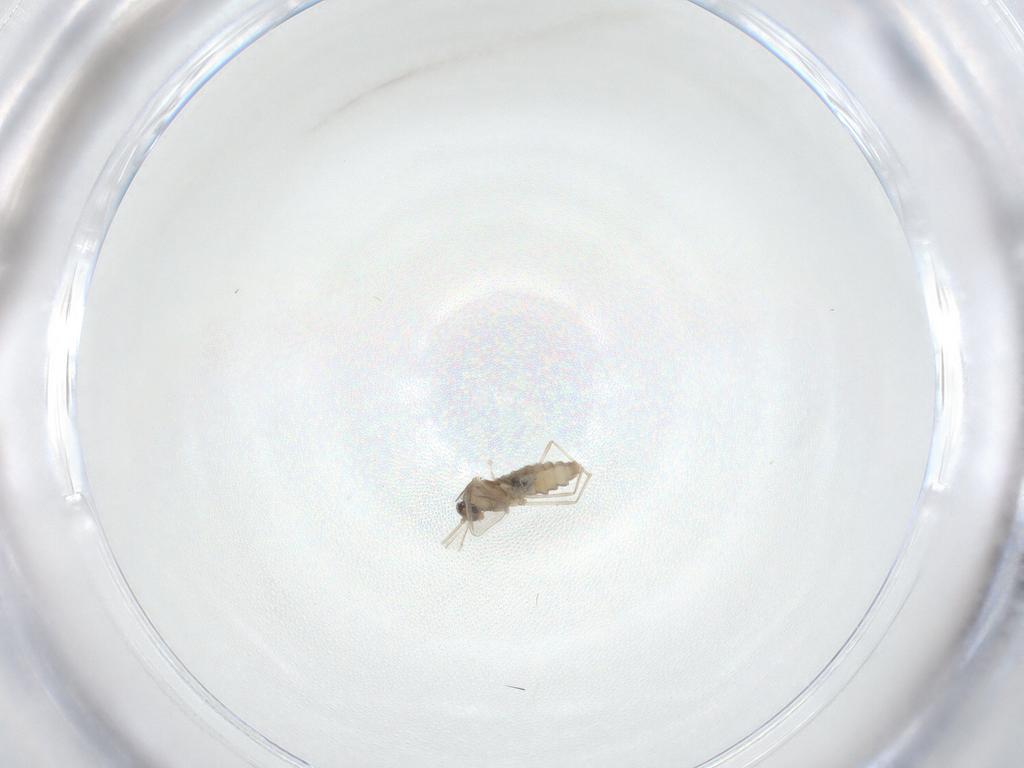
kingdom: Animalia
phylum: Arthropoda
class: Insecta
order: Diptera
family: Cecidomyiidae
